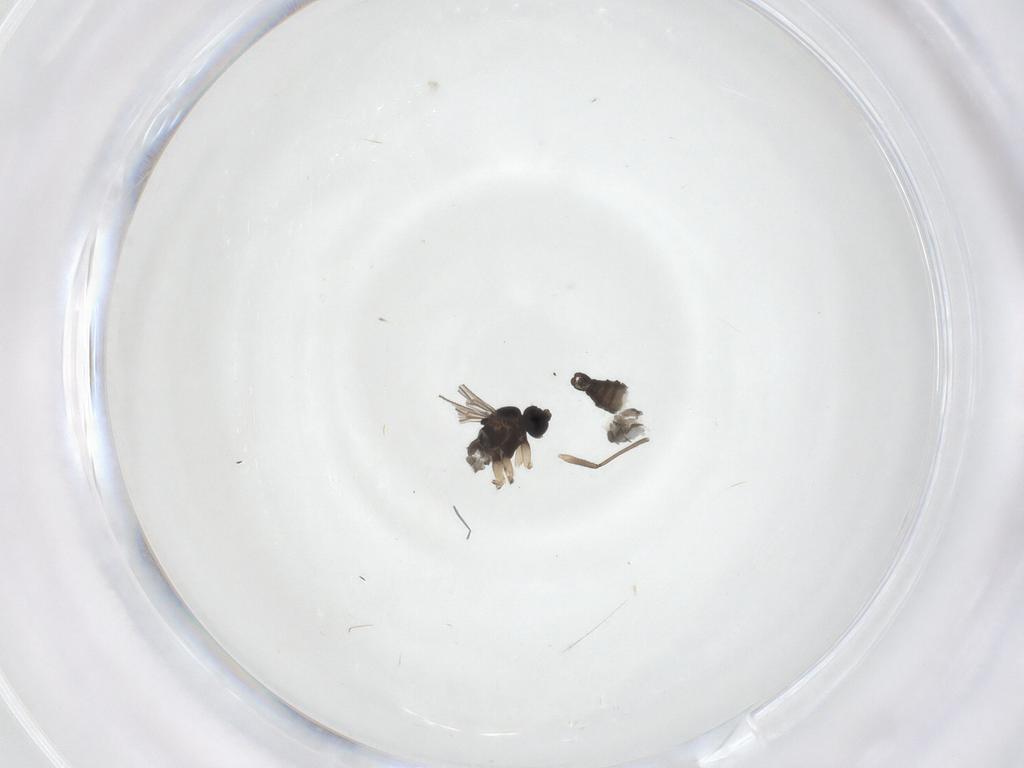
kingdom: Animalia
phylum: Arthropoda
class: Insecta
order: Diptera
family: Sciaridae
